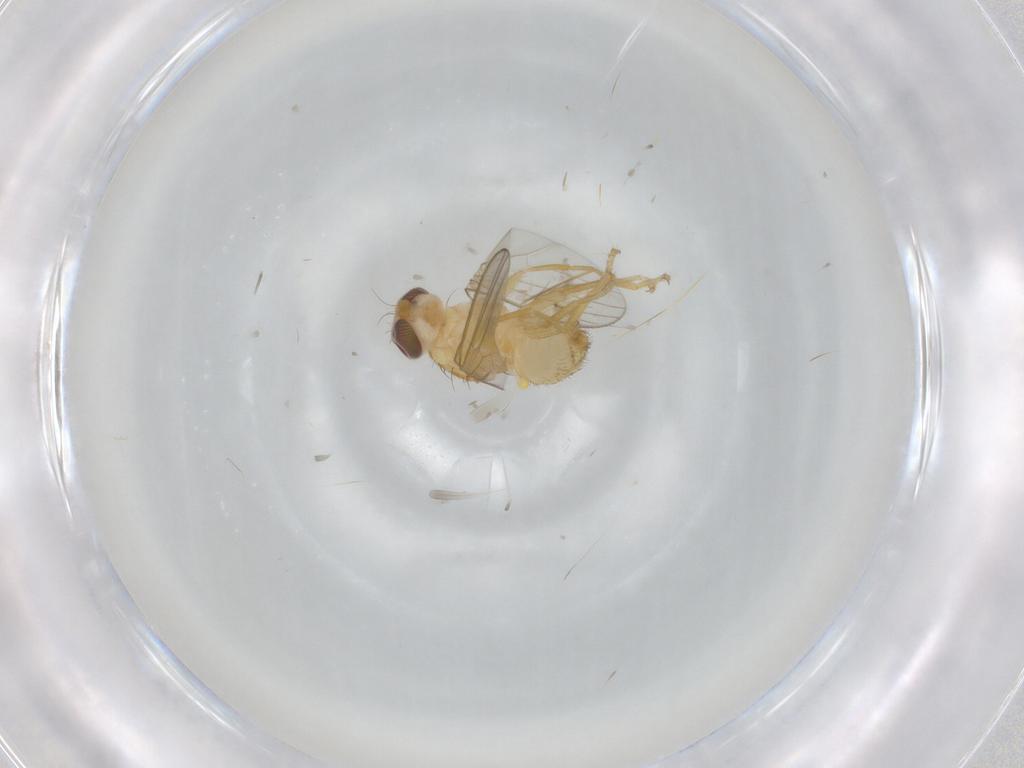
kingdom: Animalia
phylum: Arthropoda
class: Insecta
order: Diptera
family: Chyromyidae
